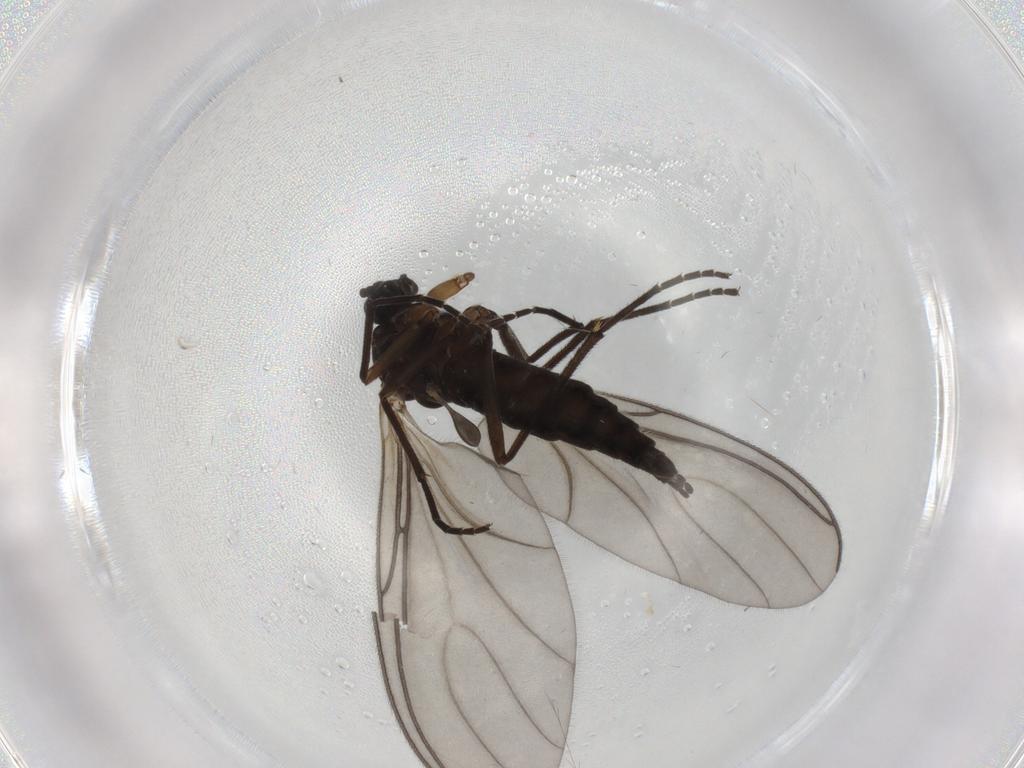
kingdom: Animalia
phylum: Arthropoda
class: Insecta
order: Diptera
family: Sciaridae
